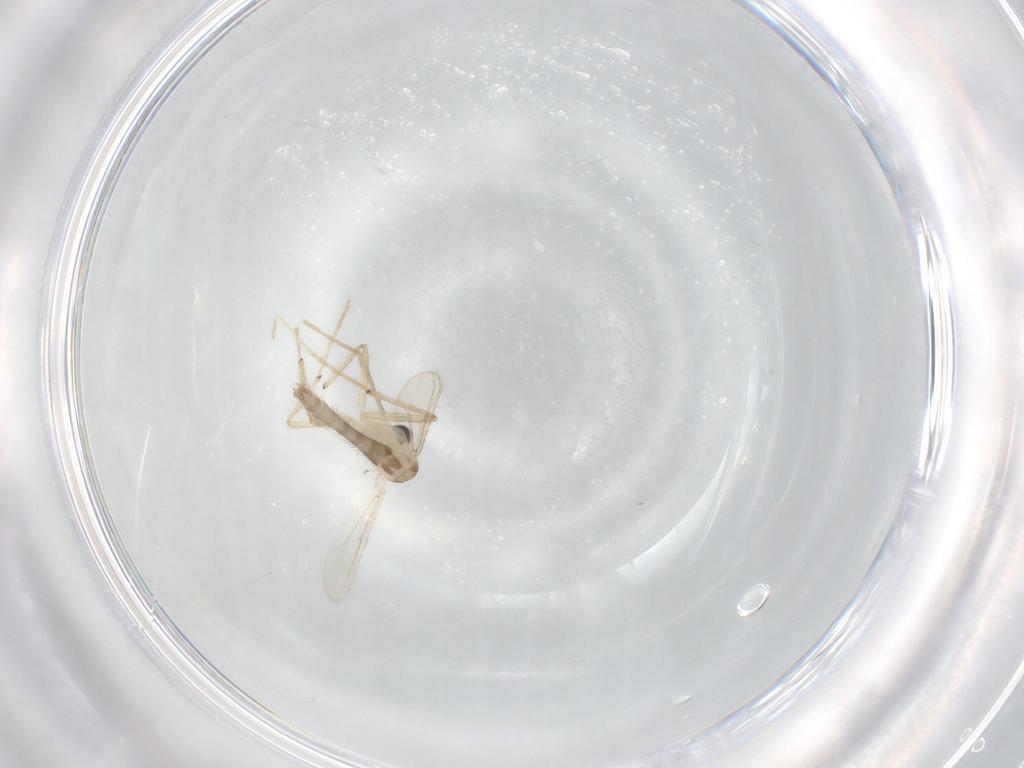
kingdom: Animalia
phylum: Arthropoda
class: Insecta
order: Diptera
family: Chironomidae
